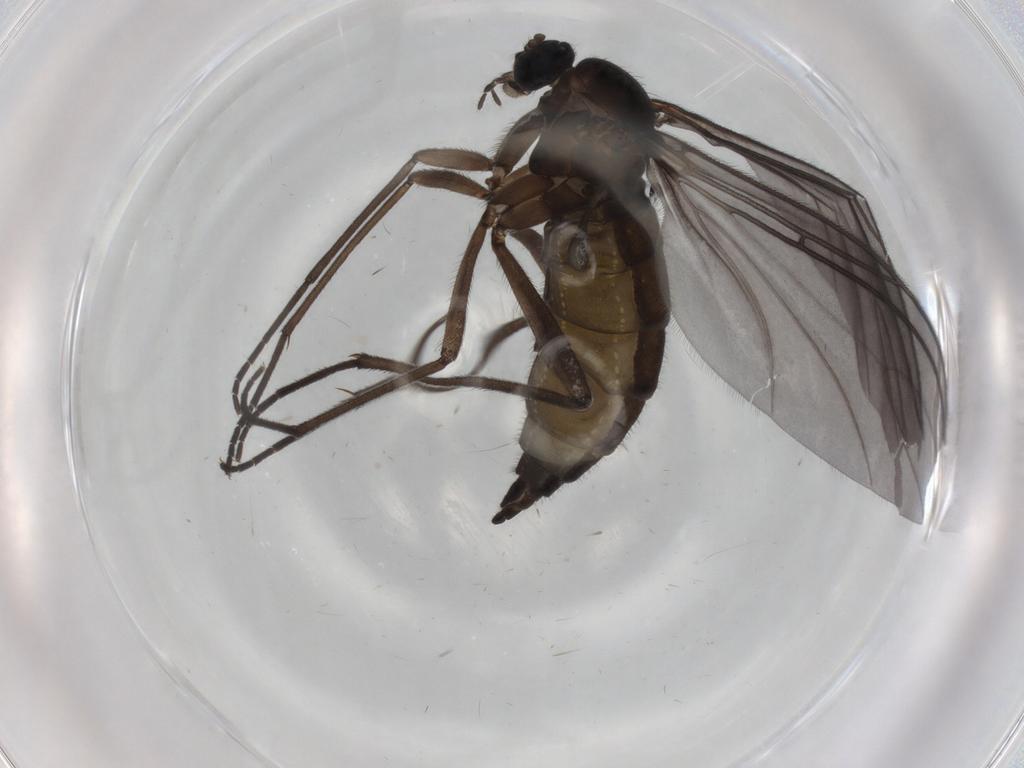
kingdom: Animalia
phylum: Arthropoda
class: Insecta
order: Diptera
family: Sciaridae
